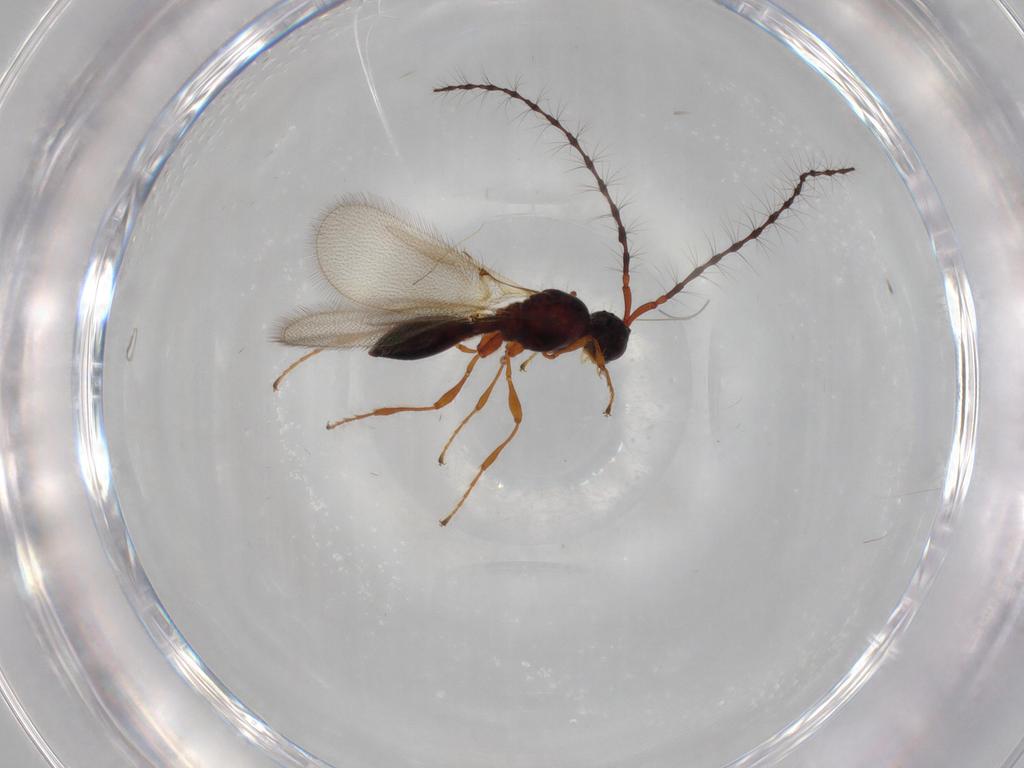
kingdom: Animalia
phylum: Arthropoda
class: Insecta
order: Hymenoptera
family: Diapriidae
